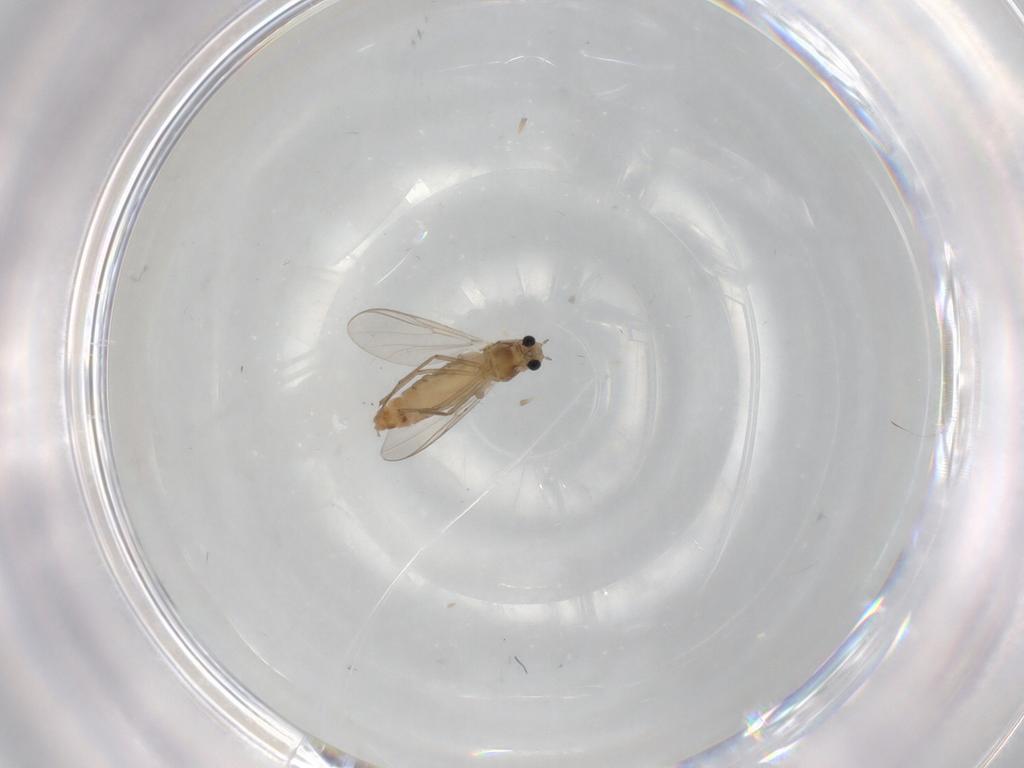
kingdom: Animalia
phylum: Arthropoda
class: Insecta
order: Diptera
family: Chironomidae
